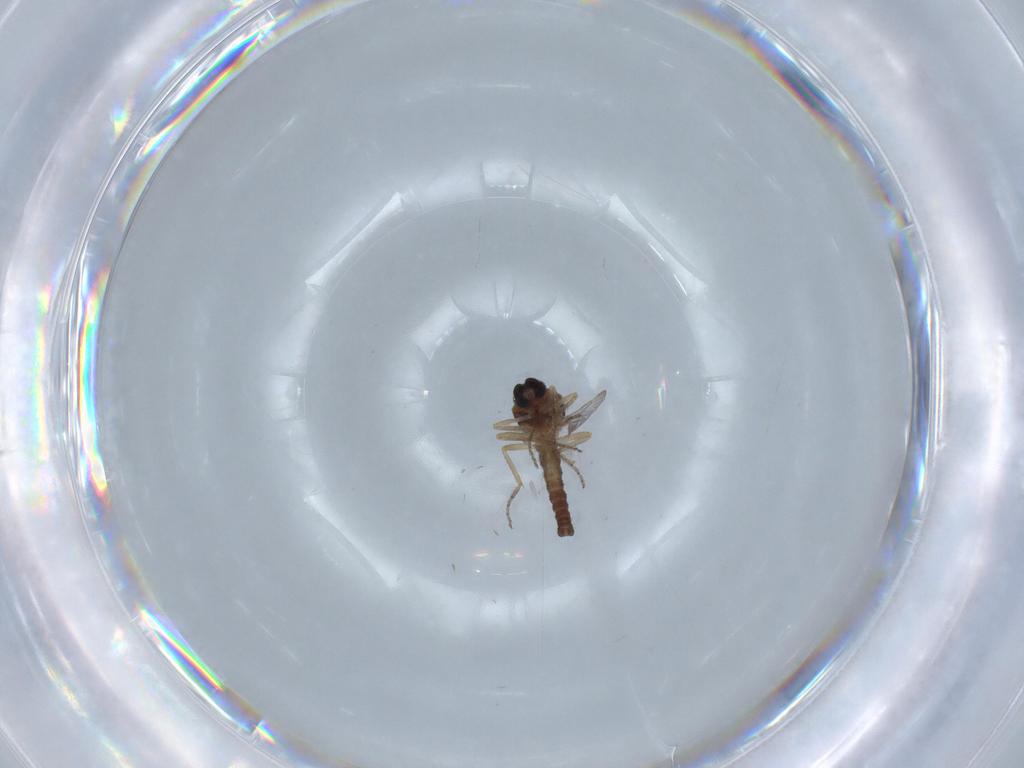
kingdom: Animalia
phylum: Arthropoda
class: Insecta
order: Diptera
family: Ceratopogonidae
